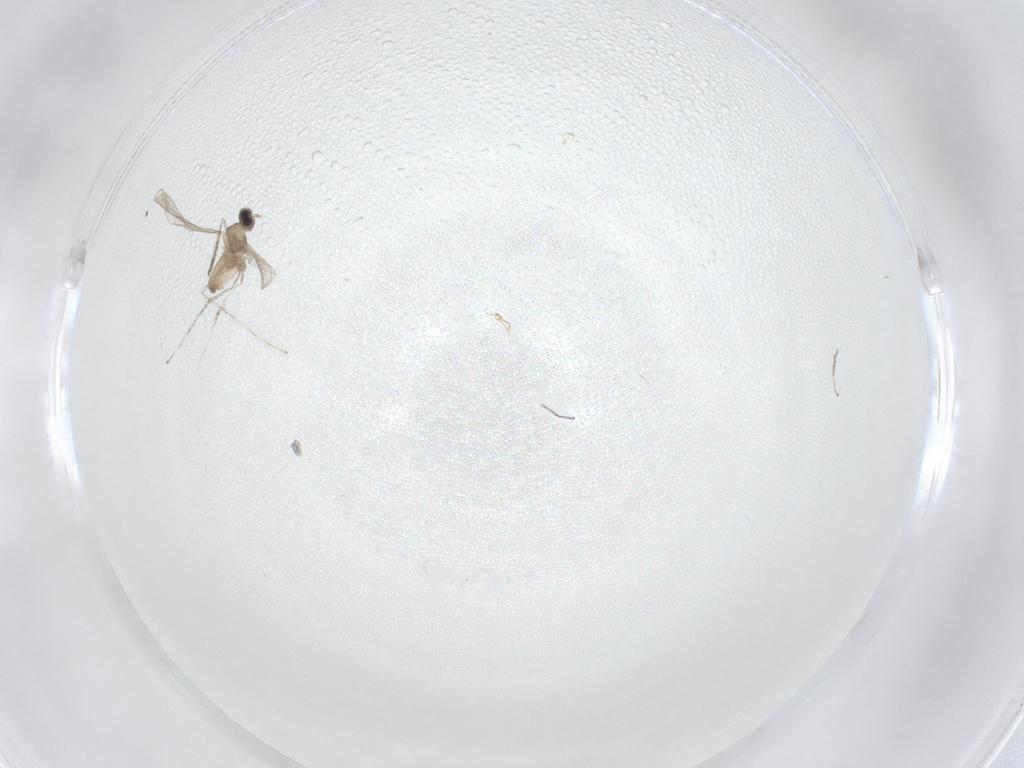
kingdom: Animalia
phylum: Arthropoda
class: Insecta
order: Diptera
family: Cecidomyiidae
